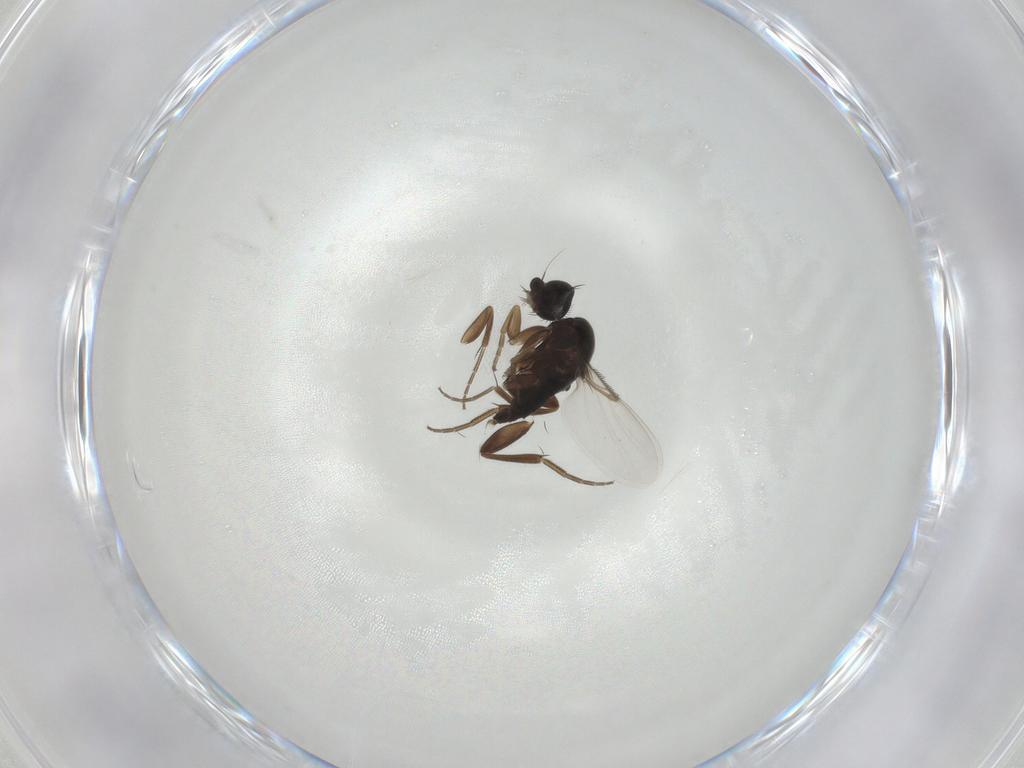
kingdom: Animalia
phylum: Arthropoda
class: Insecta
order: Diptera
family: Phoridae
